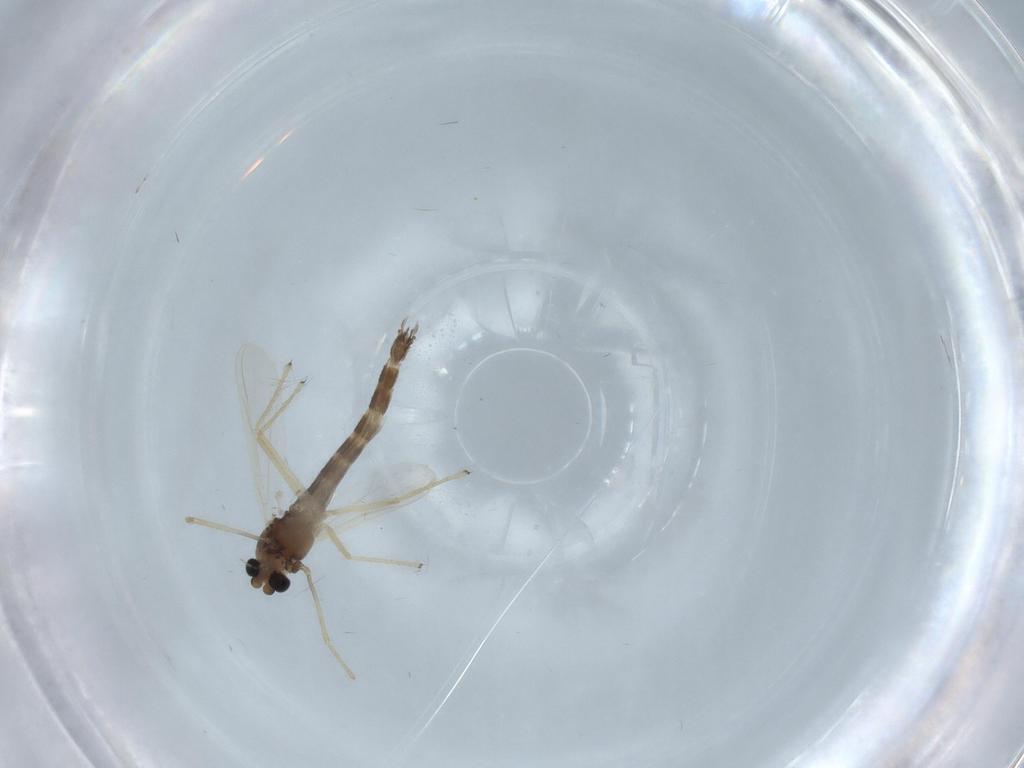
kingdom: Animalia
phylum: Arthropoda
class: Insecta
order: Diptera
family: Chironomidae
